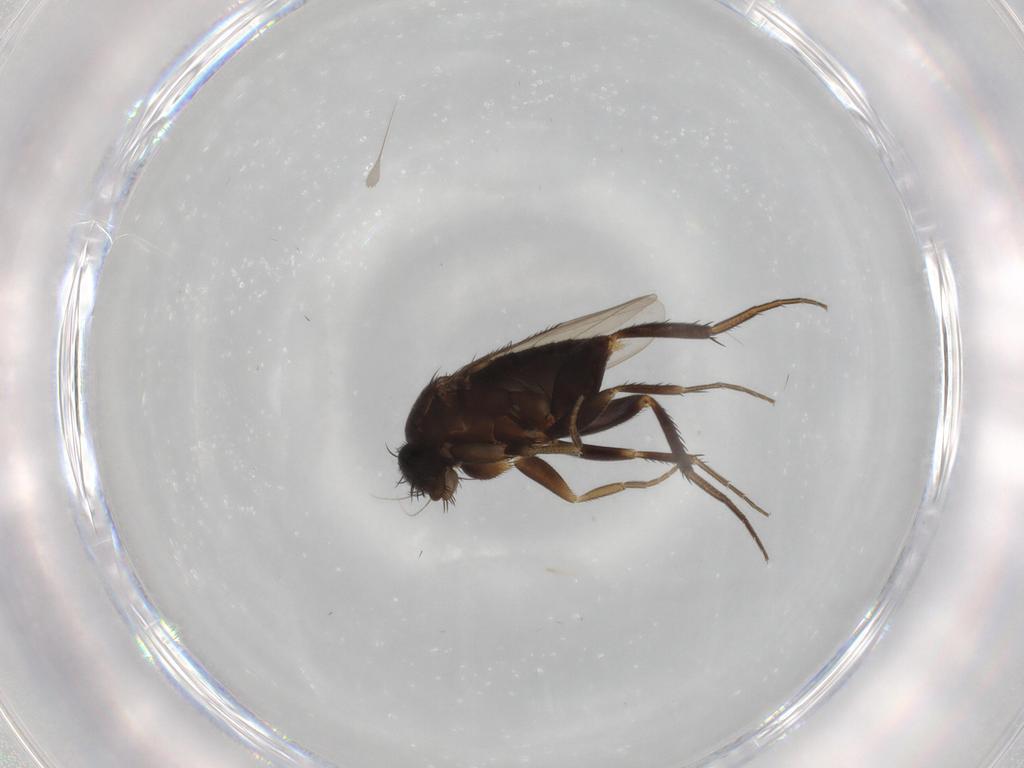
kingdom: Animalia
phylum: Arthropoda
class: Insecta
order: Diptera
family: Phoridae
